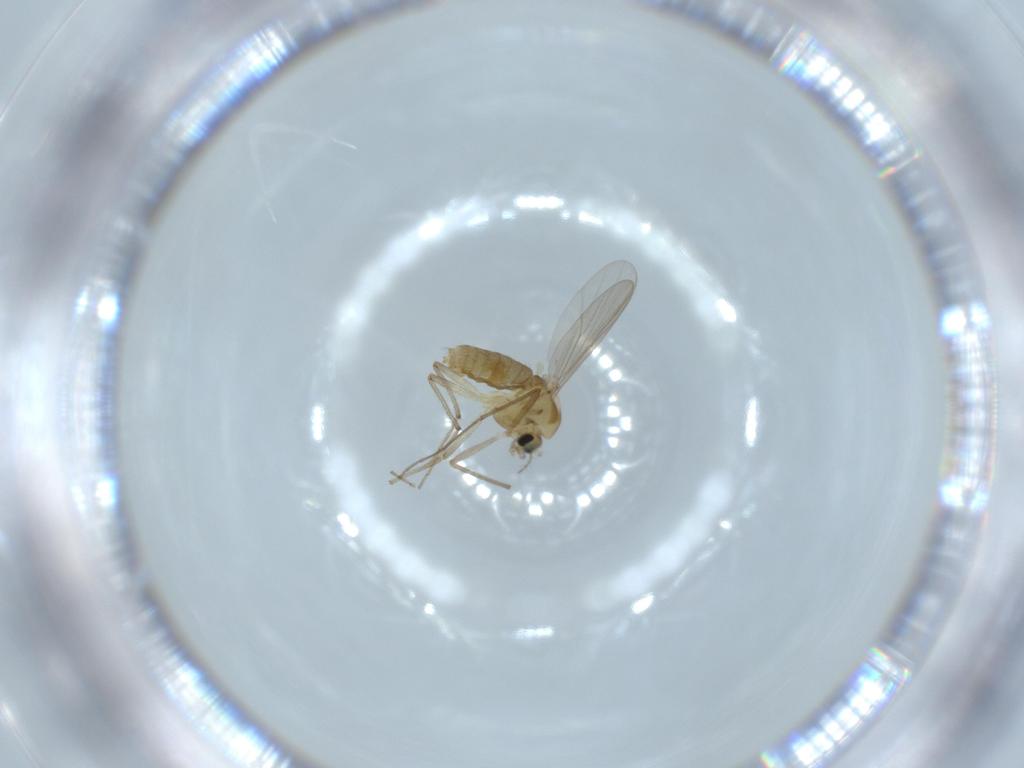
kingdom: Animalia
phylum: Arthropoda
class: Insecta
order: Diptera
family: Chironomidae
